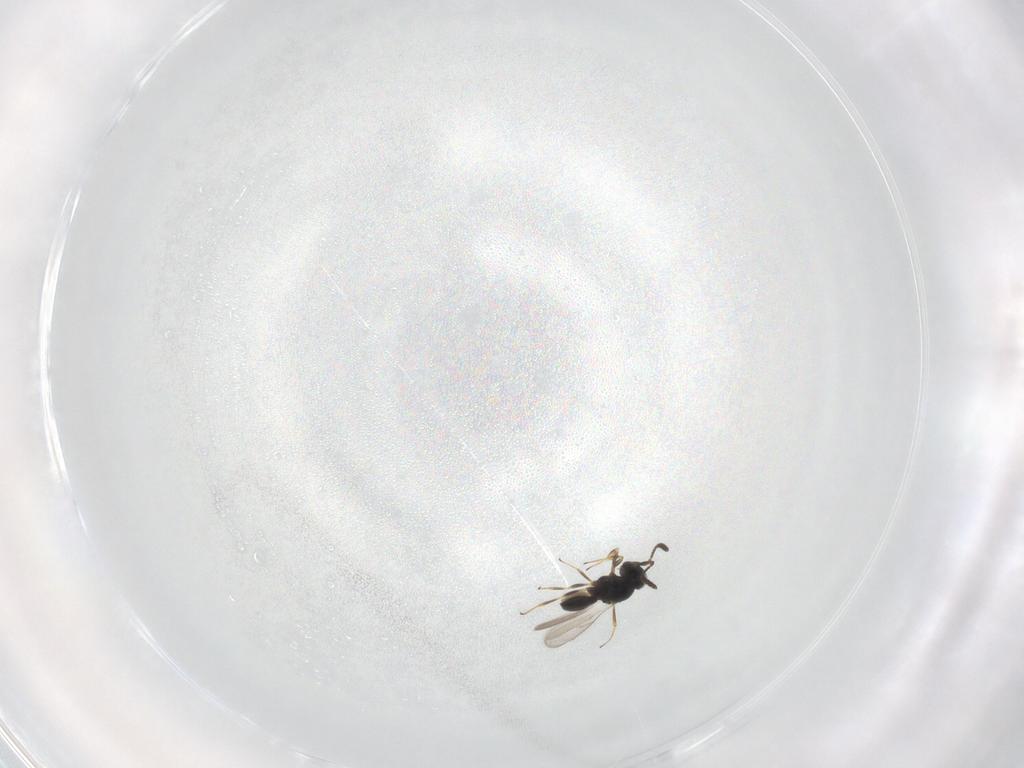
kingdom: Animalia
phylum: Arthropoda
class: Insecta
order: Hymenoptera
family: Scelionidae
